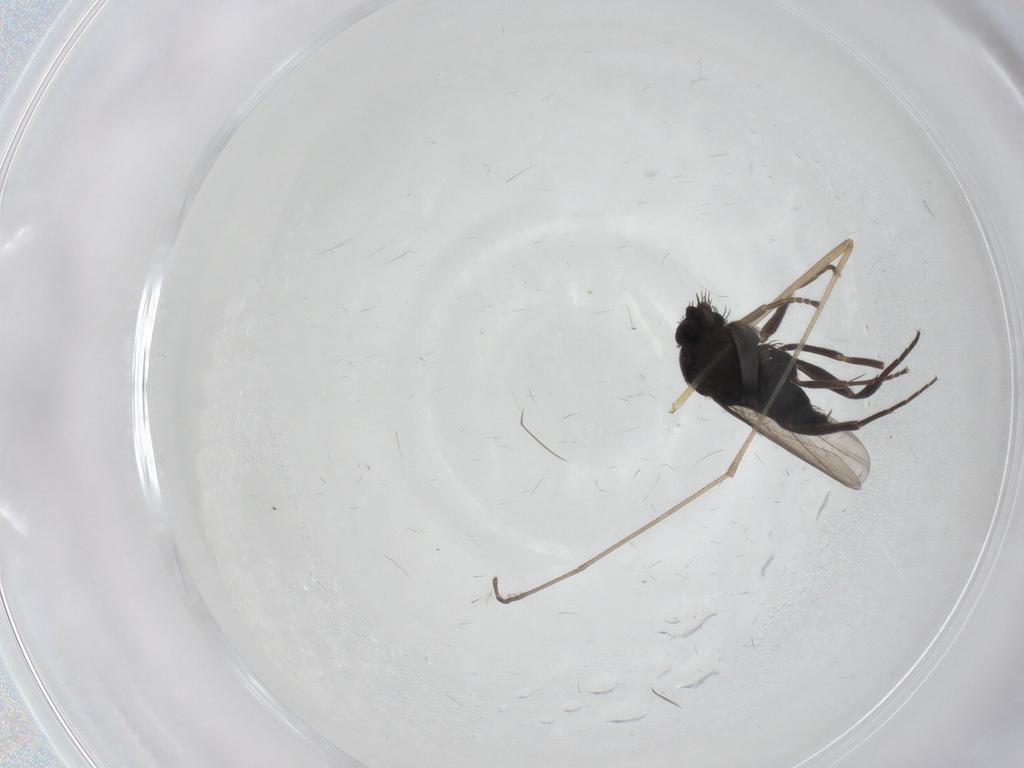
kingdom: Animalia
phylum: Arthropoda
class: Insecta
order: Diptera
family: Phoridae
